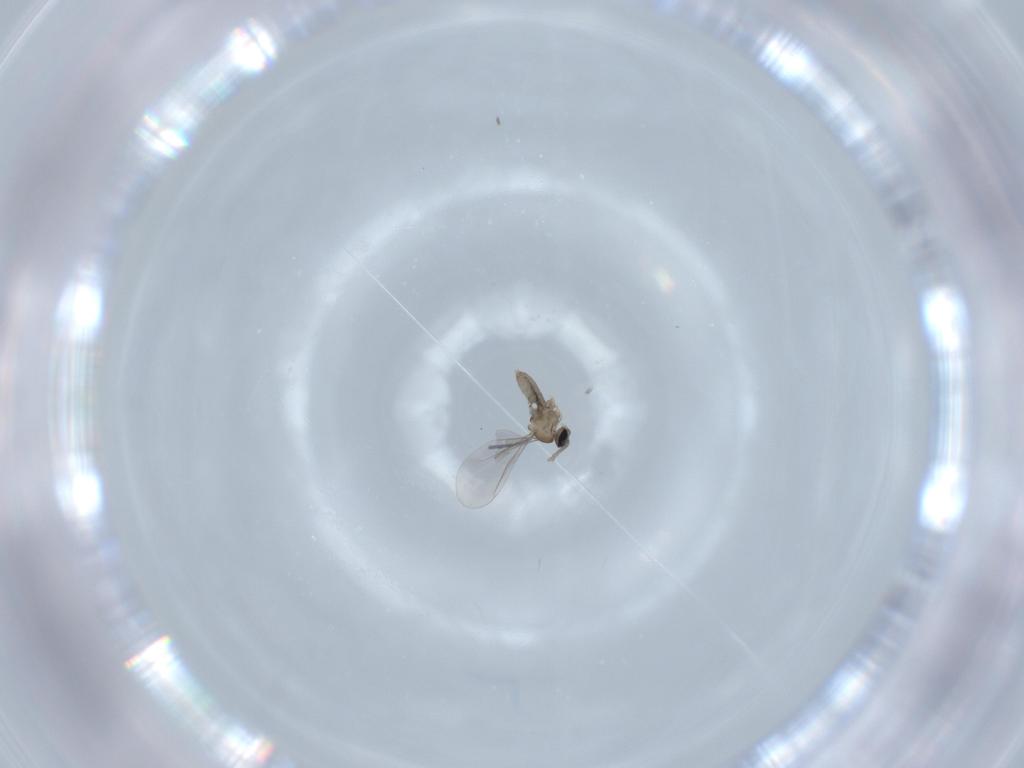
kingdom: Animalia
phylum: Arthropoda
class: Insecta
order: Diptera
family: Cecidomyiidae
